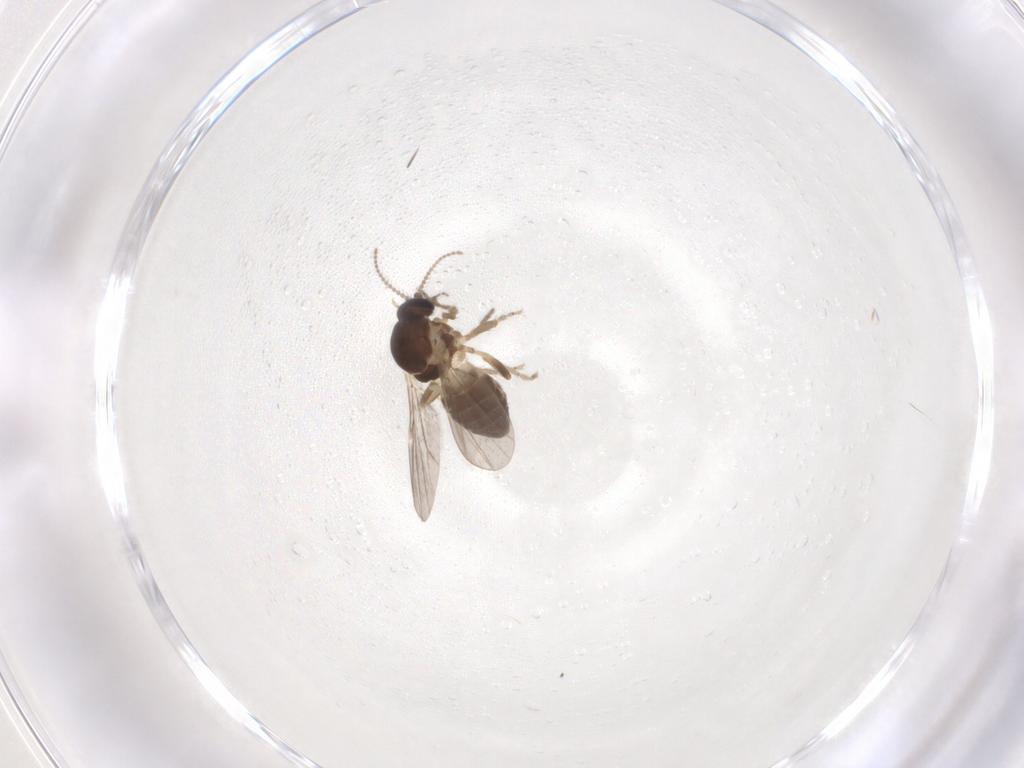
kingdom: Animalia
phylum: Arthropoda
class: Insecta
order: Diptera
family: Ceratopogonidae
